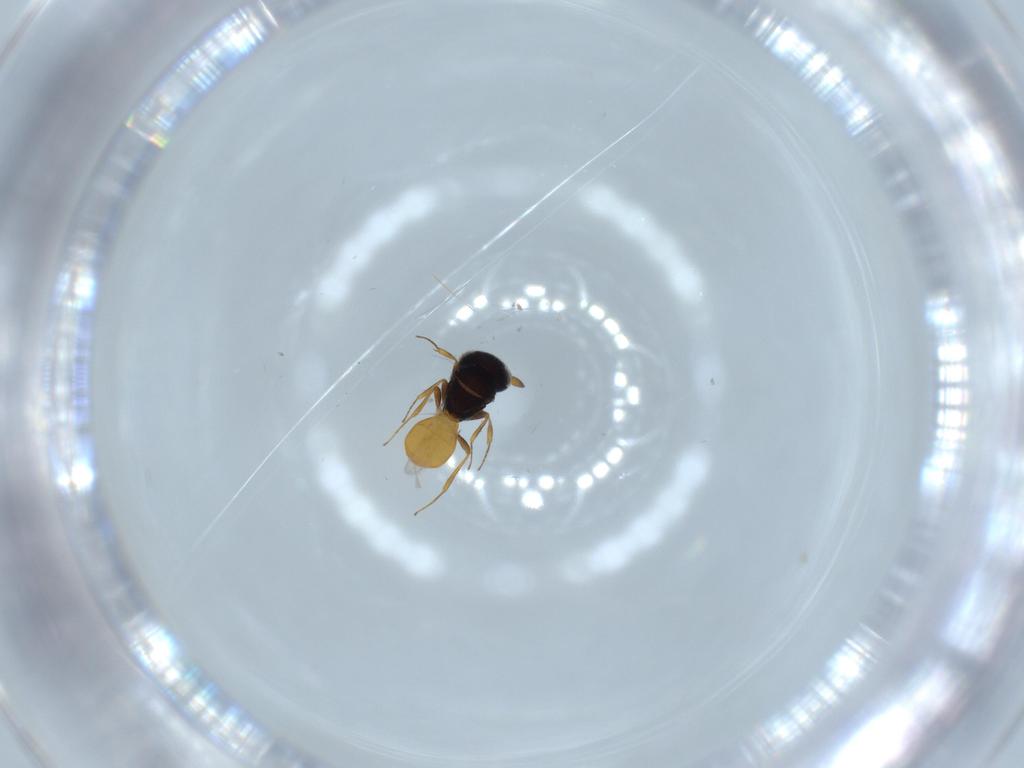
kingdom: Animalia
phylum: Arthropoda
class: Insecta
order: Hymenoptera
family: Scelionidae
